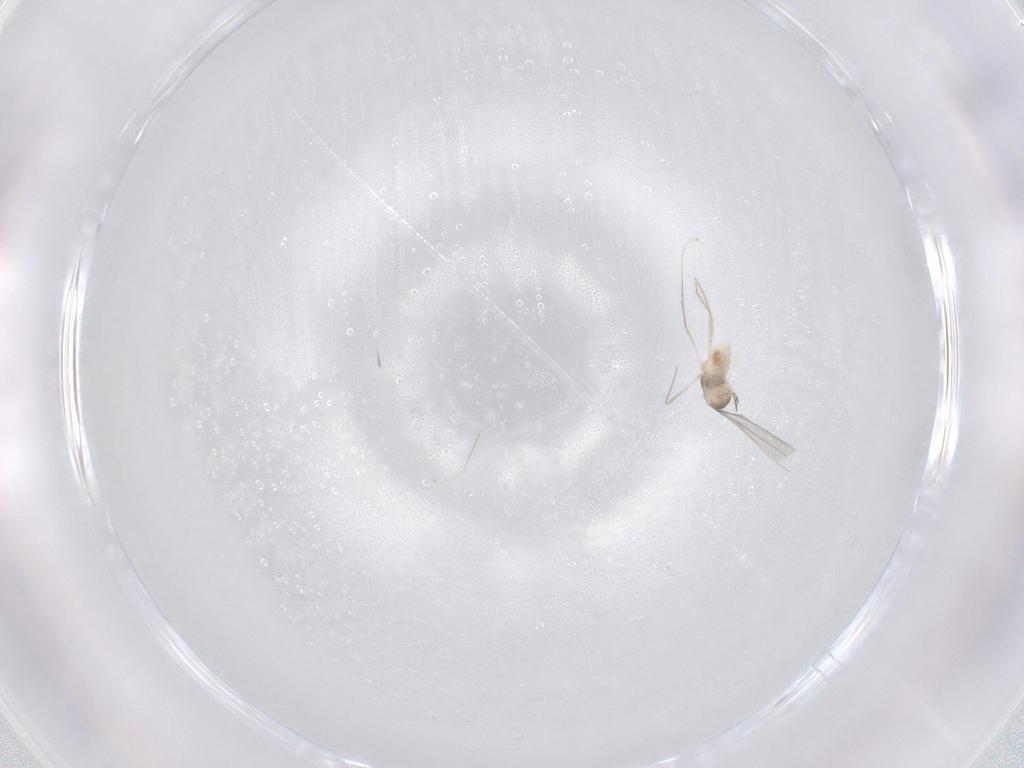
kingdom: Animalia
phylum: Arthropoda
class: Insecta
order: Diptera
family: Cecidomyiidae
